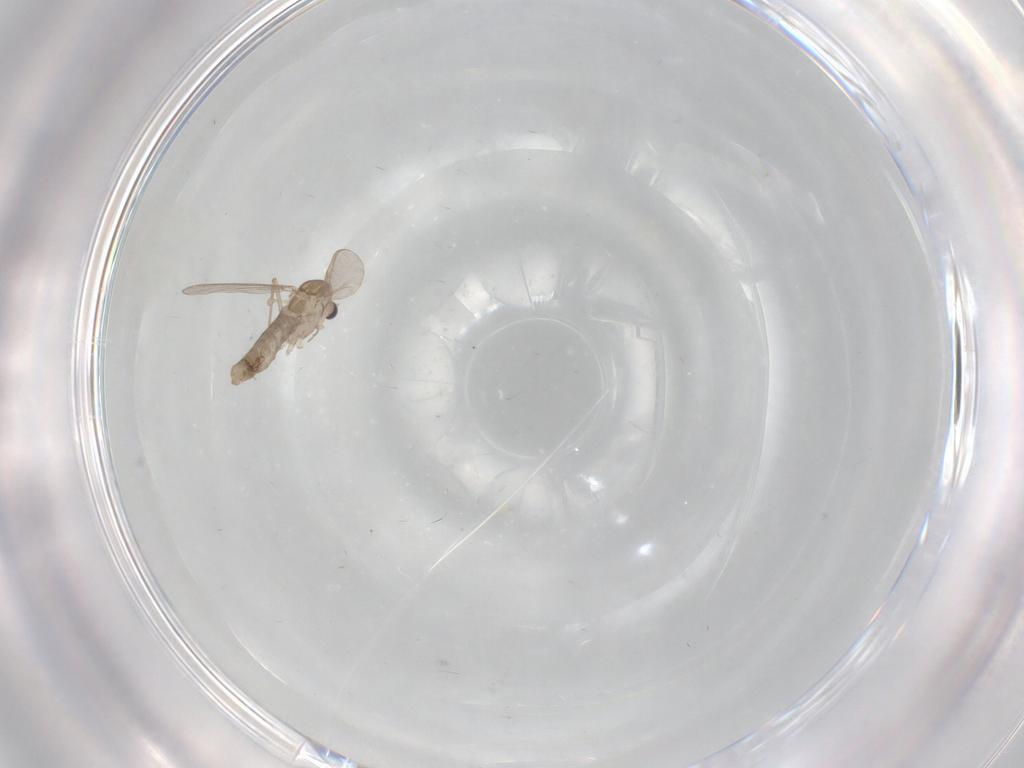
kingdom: Animalia
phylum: Arthropoda
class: Insecta
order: Diptera
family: Chironomidae
